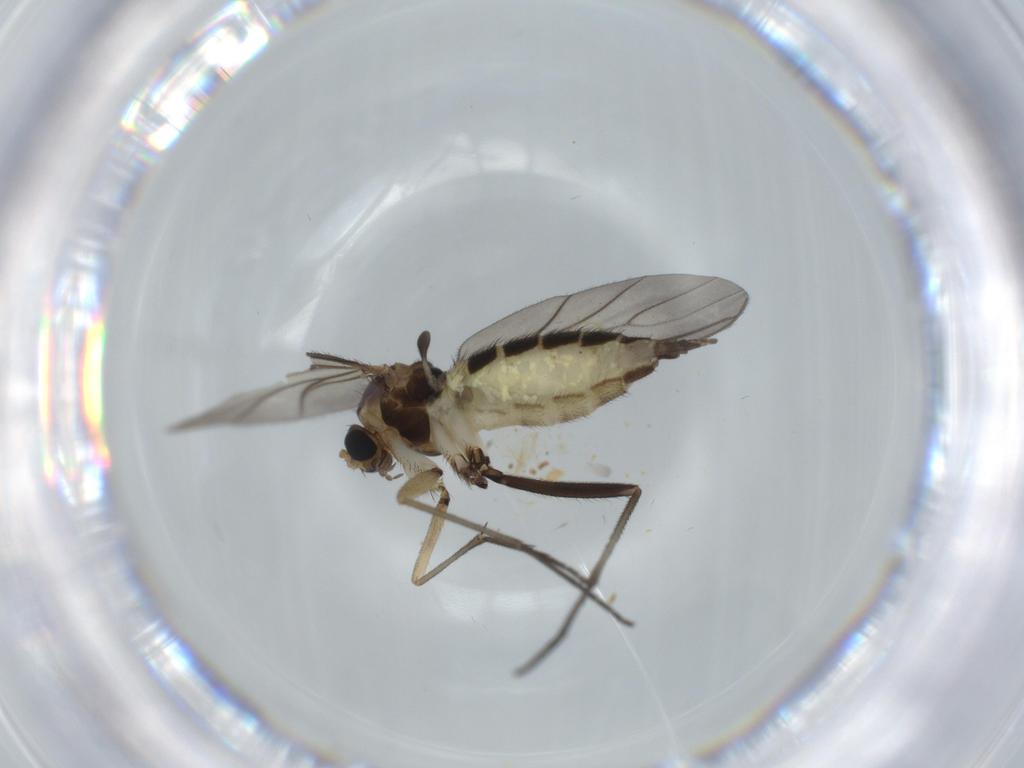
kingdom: Animalia
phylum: Arthropoda
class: Insecta
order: Diptera
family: Sciaridae
